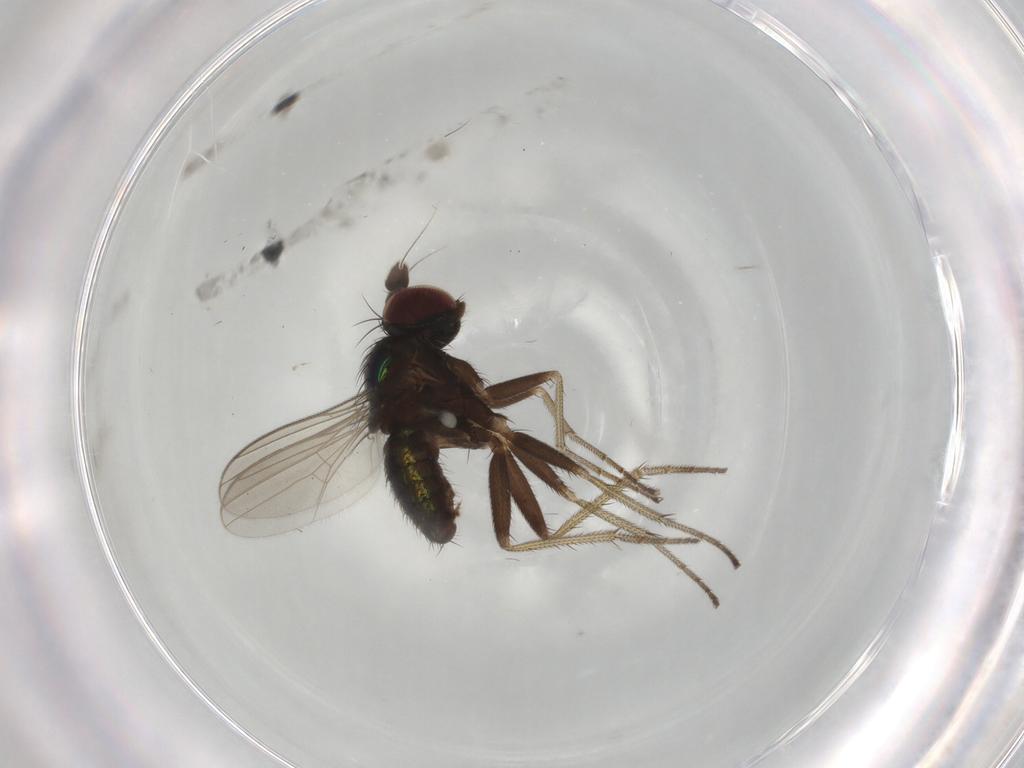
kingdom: Animalia
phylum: Arthropoda
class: Insecta
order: Diptera
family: Dolichopodidae
